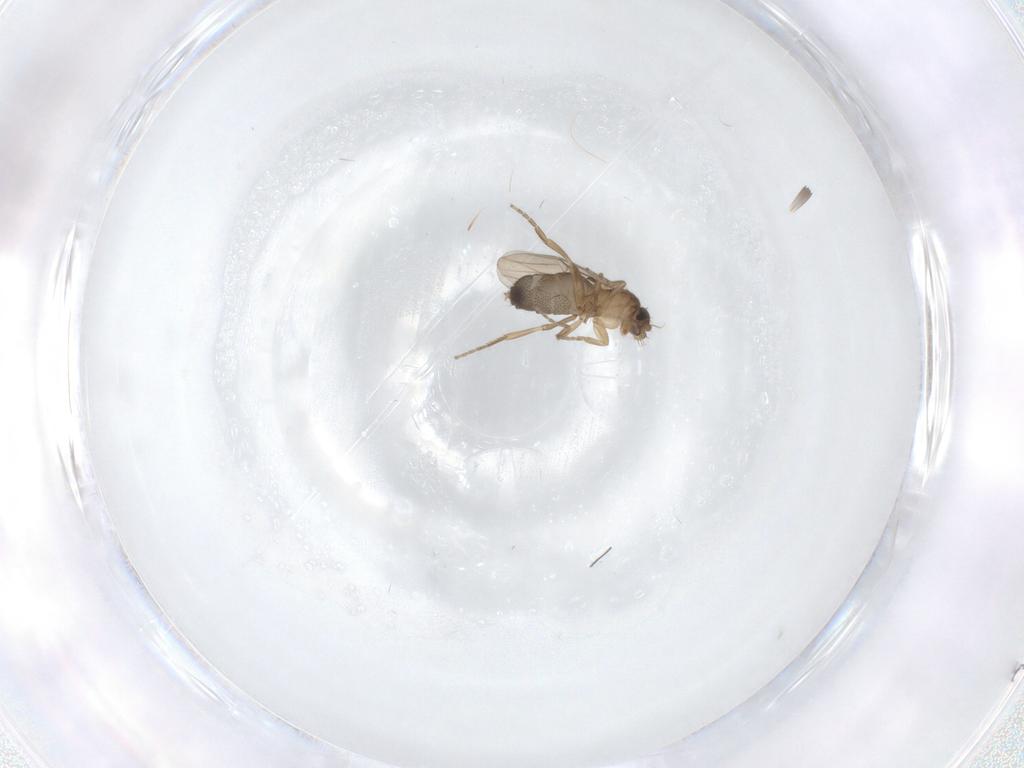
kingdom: Animalia
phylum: Arthropoda
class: Insecta
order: Diptera
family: Phoridae
